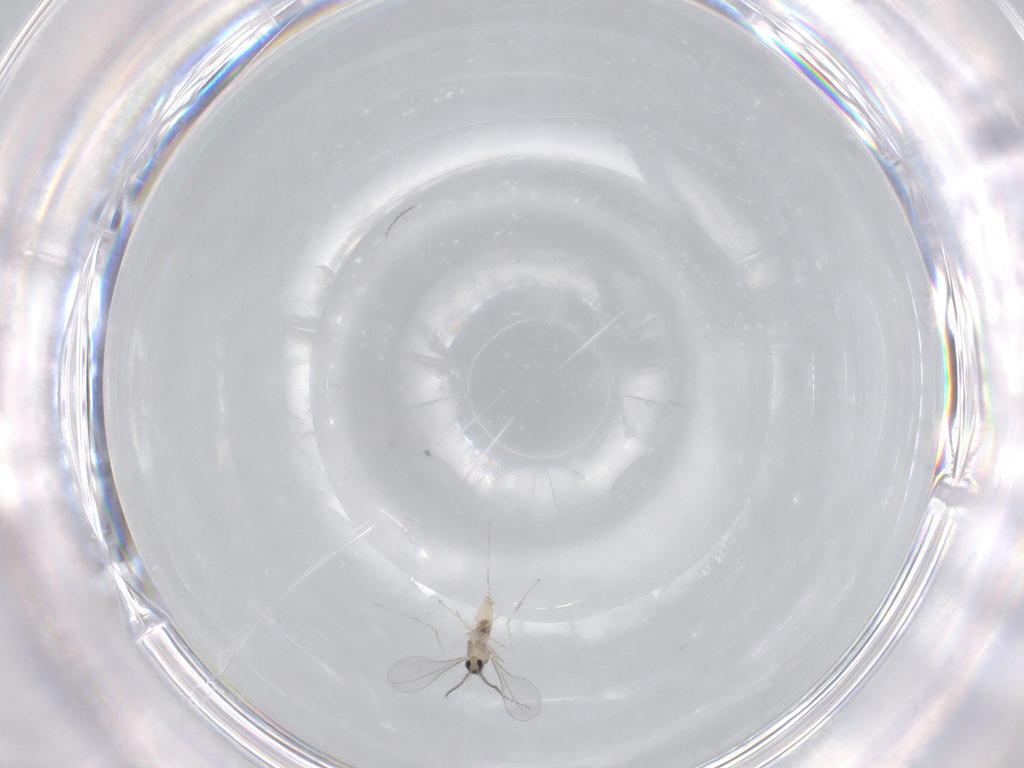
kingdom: Animalia
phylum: Arthropoda
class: Insecta
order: Diptera
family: Cecidomyiidae
